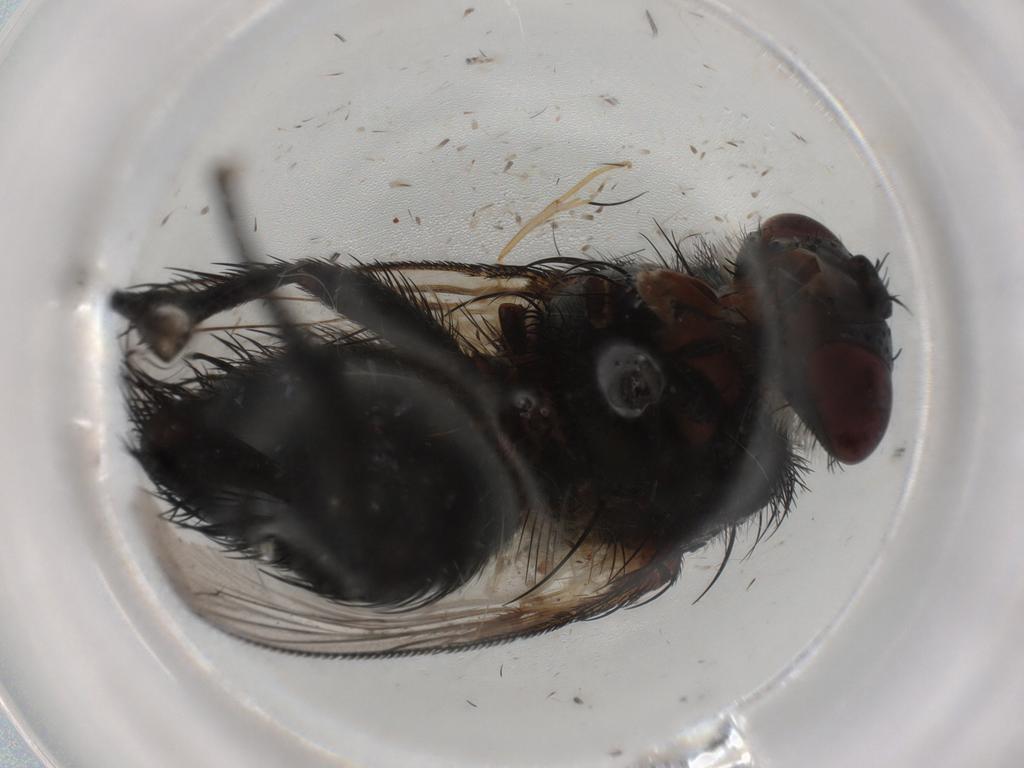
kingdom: Animalia
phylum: Arthropoda
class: Insecta
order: Diptera
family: Tachinidae
